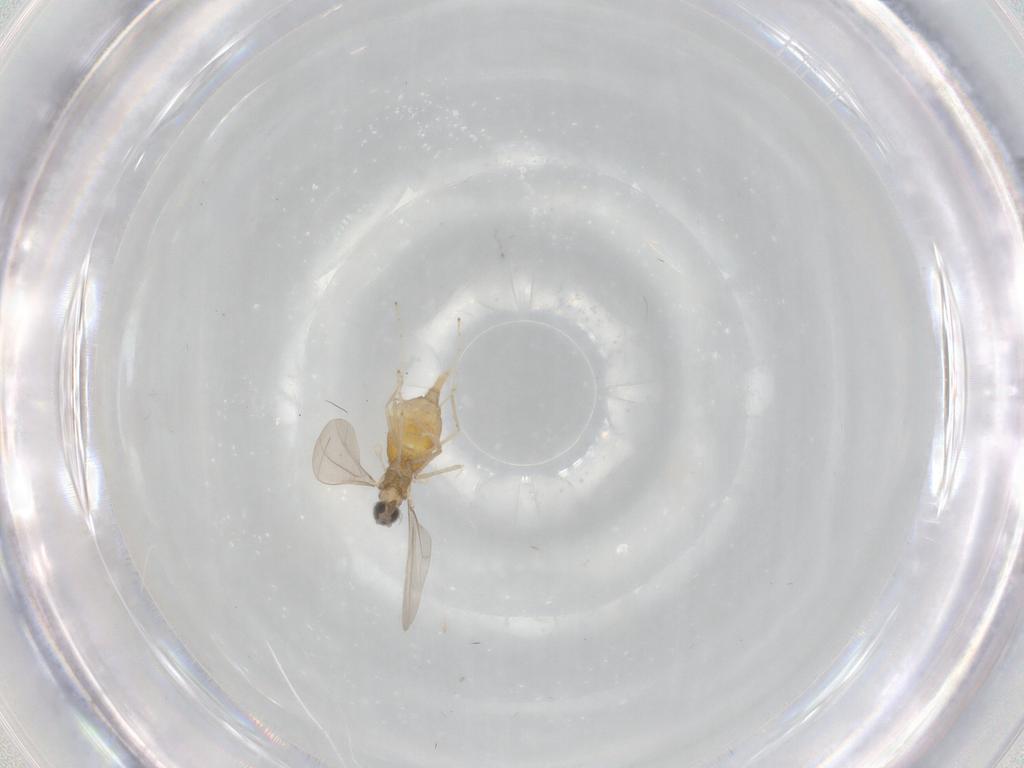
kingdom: Animalia
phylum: Arthropoda
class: Insecta
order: Diptera
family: Cecidomyiidae
